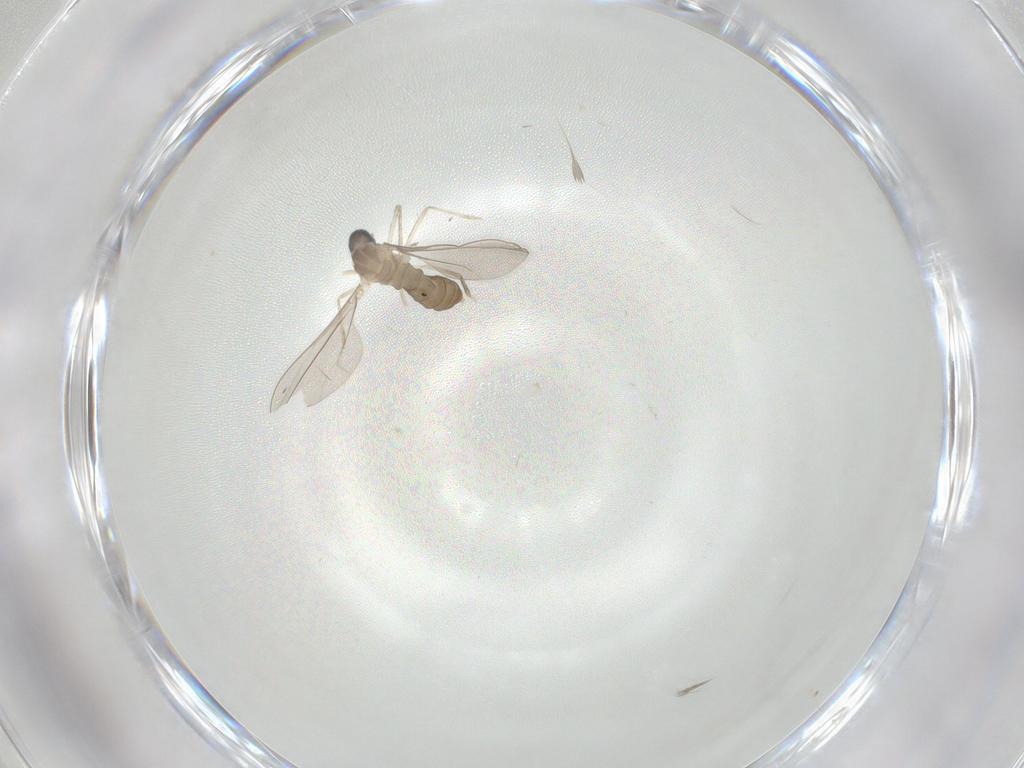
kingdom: Animalia
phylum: Arthropoda
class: Insecta
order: Diptera
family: Cecidomyiidae
